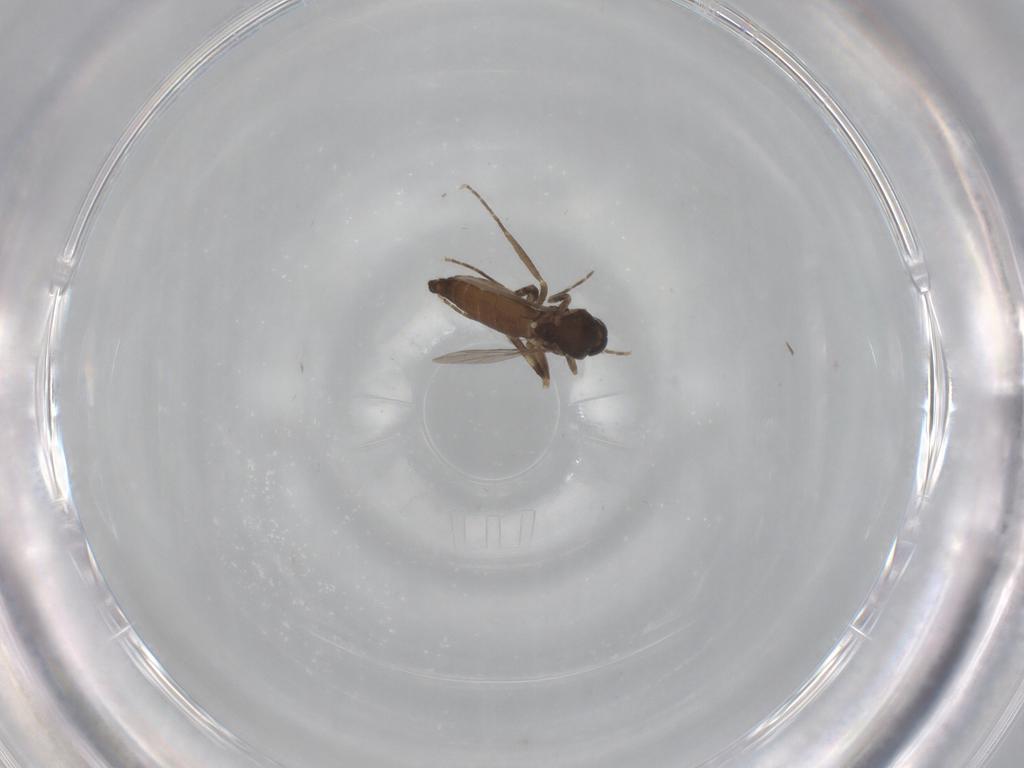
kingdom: Animalia
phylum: Arthropoda
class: Insecta
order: Diptera
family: Ceratopogonidae
